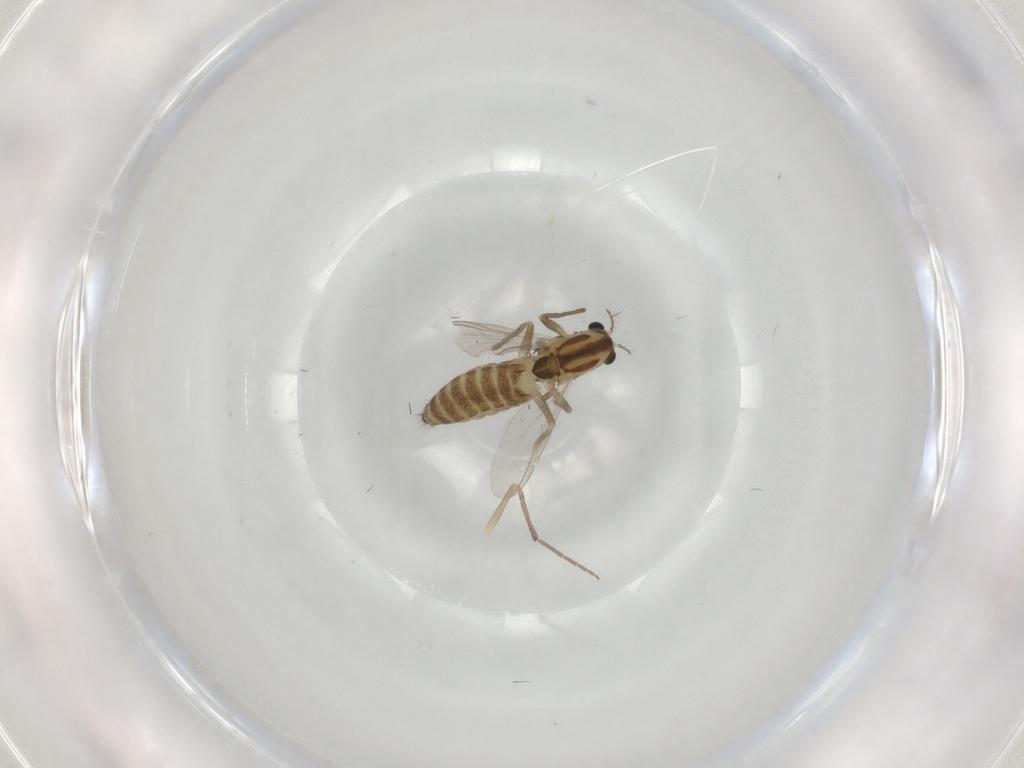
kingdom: Animalia
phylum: Arthropoda
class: Insecta
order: Diptera
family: Chironomidae
